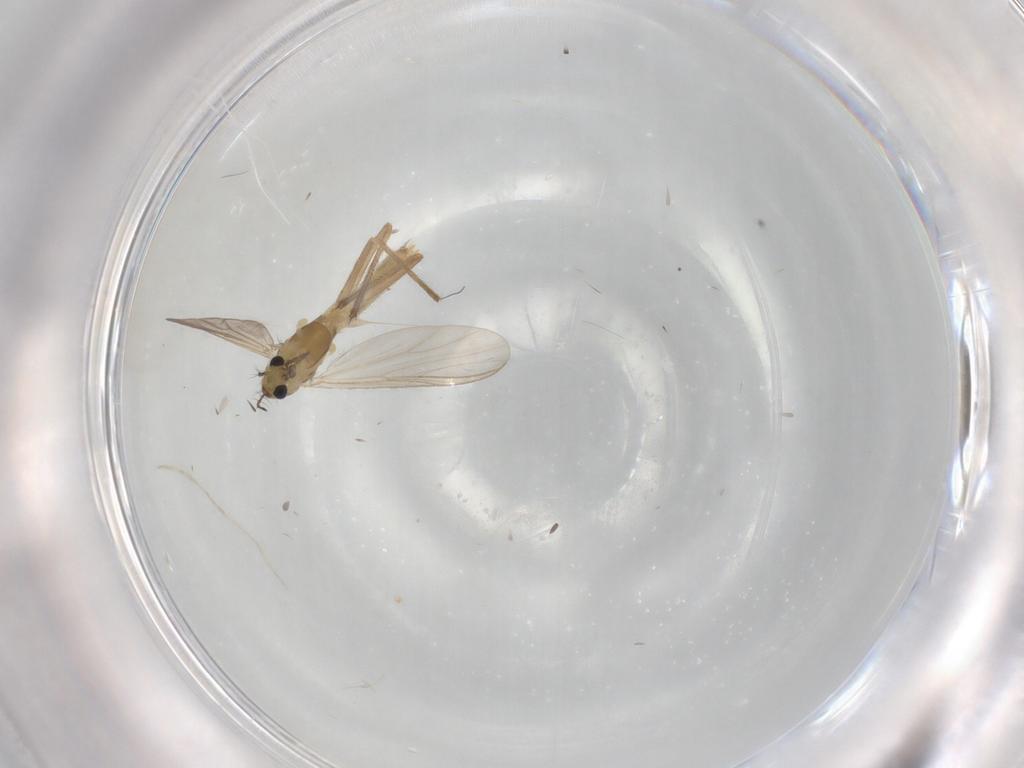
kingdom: Animalia
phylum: Arthropoda
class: Insecta
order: Diptera
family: Chironomidae
